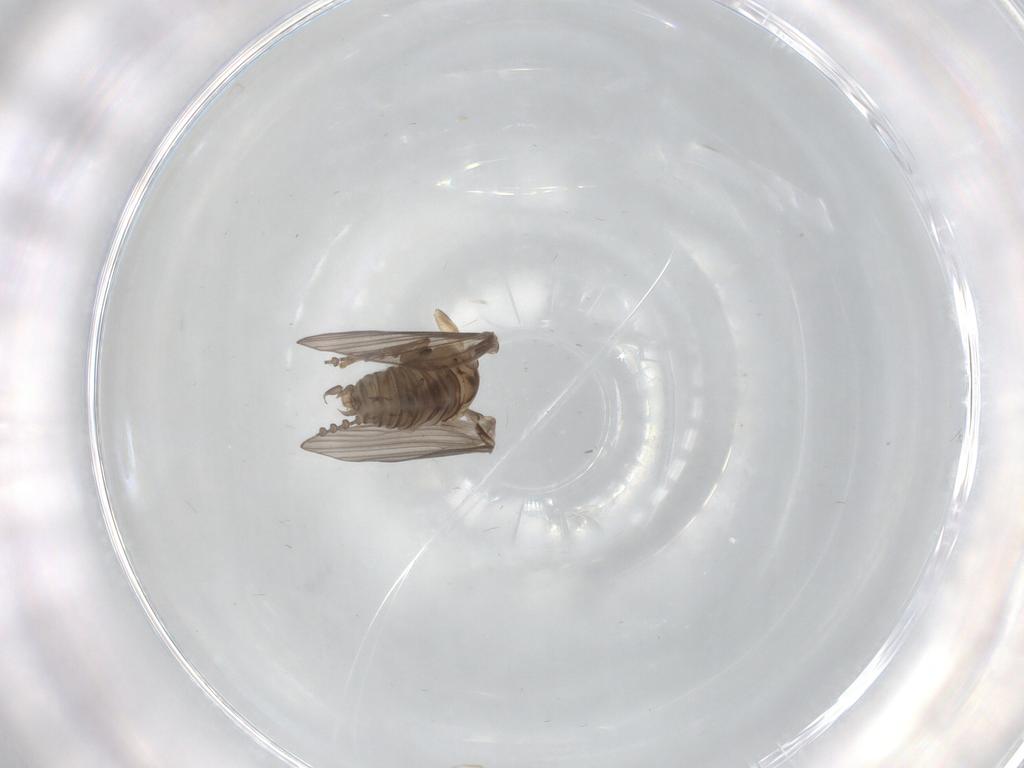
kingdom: Animalia
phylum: Arthropoda
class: Insecta
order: Diptera
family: Psychodidae
